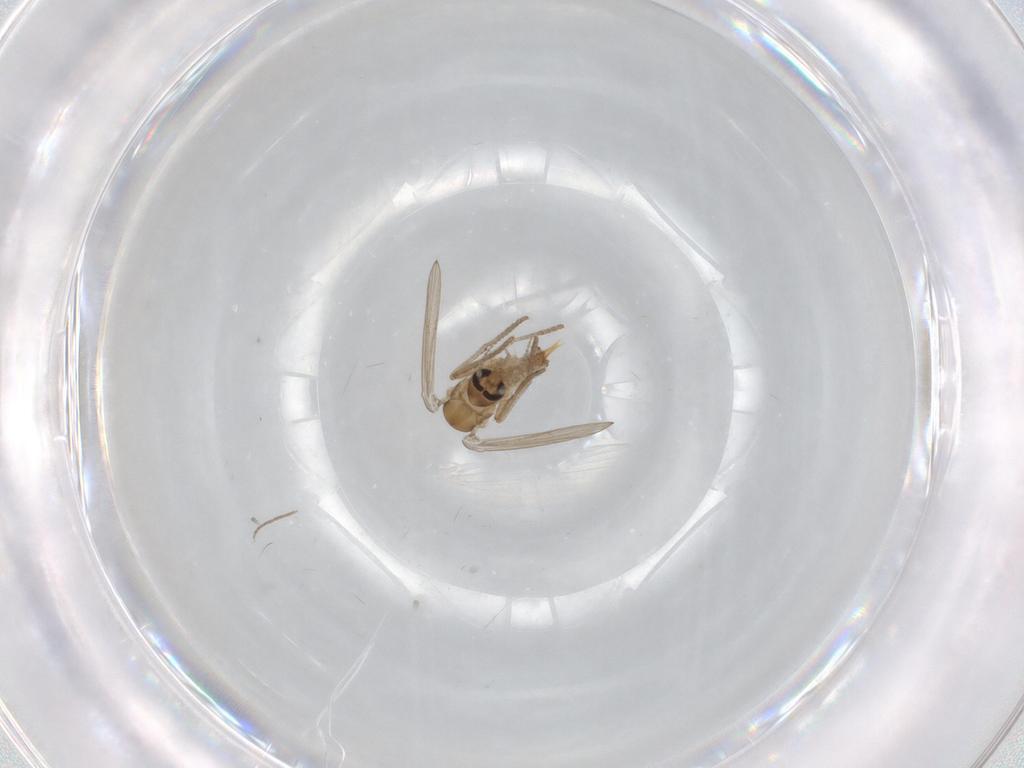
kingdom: Animalia
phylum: Arthropoda
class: Insecta
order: Diptera
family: Psychodidae
